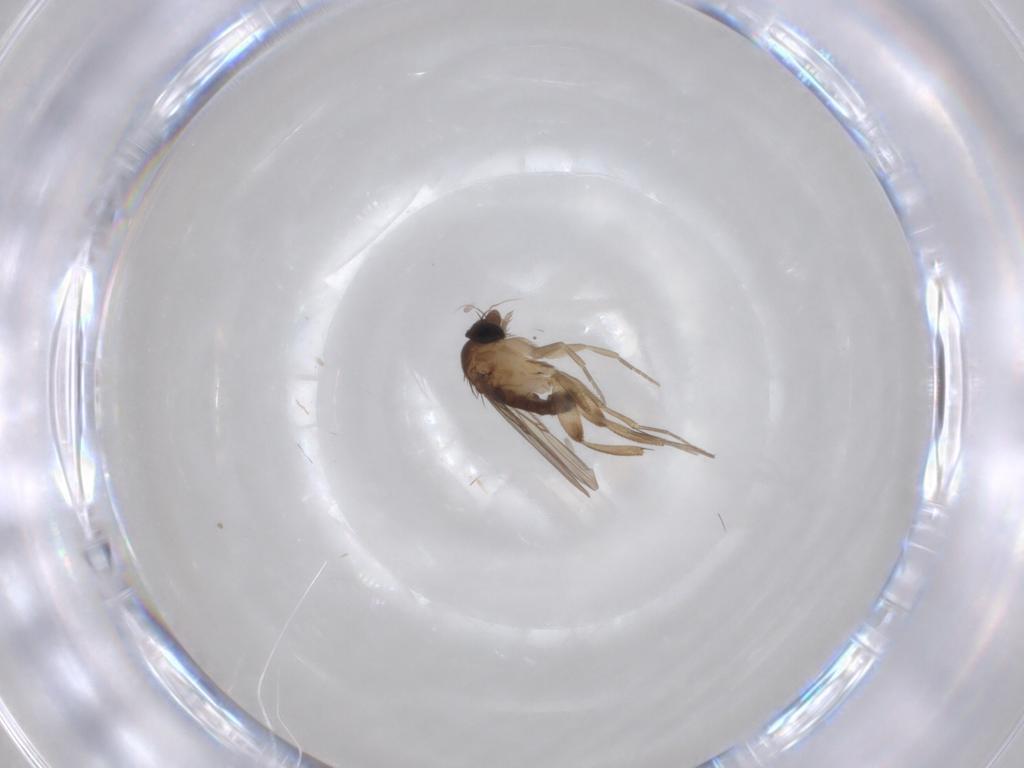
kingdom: Animalia
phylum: Arthropoda
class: Insecta
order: Diptera
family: Phoridae
